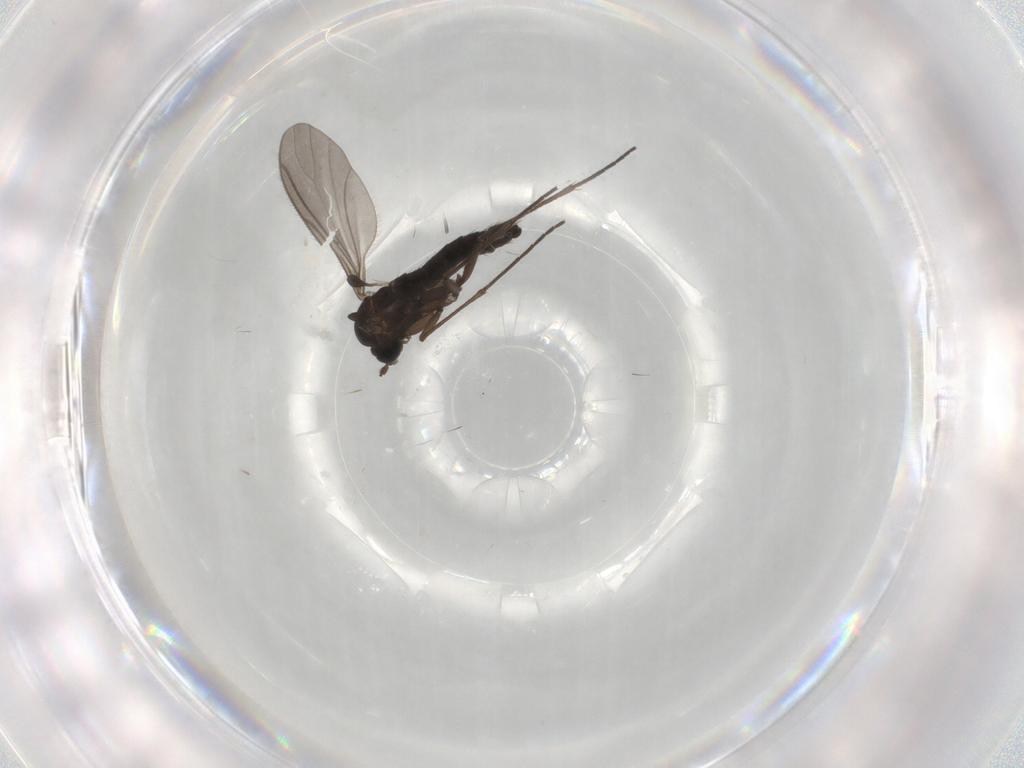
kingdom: Animalia
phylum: Arthropoda
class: Insecta
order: Diptera
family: Sciaridae
